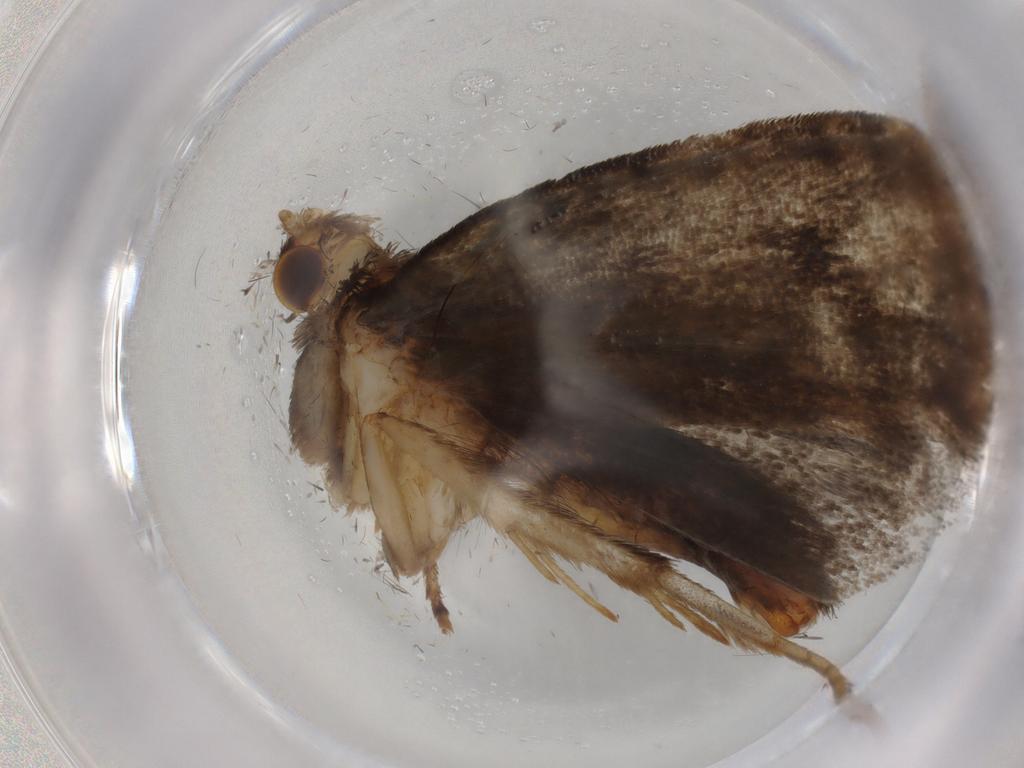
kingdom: Animalia
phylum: Arthropoda
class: Insecta
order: Lepidoptera
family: Tineidae
